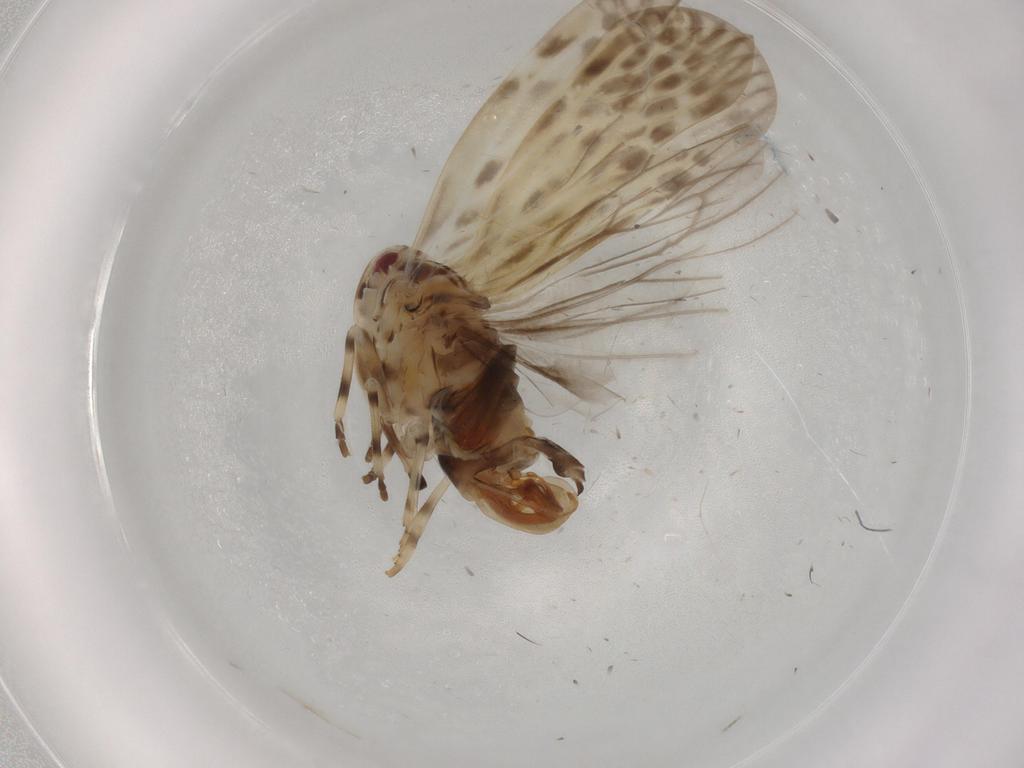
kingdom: Animalia
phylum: Arthropoda
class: Insecta
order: Hemiptera
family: Derbidae
